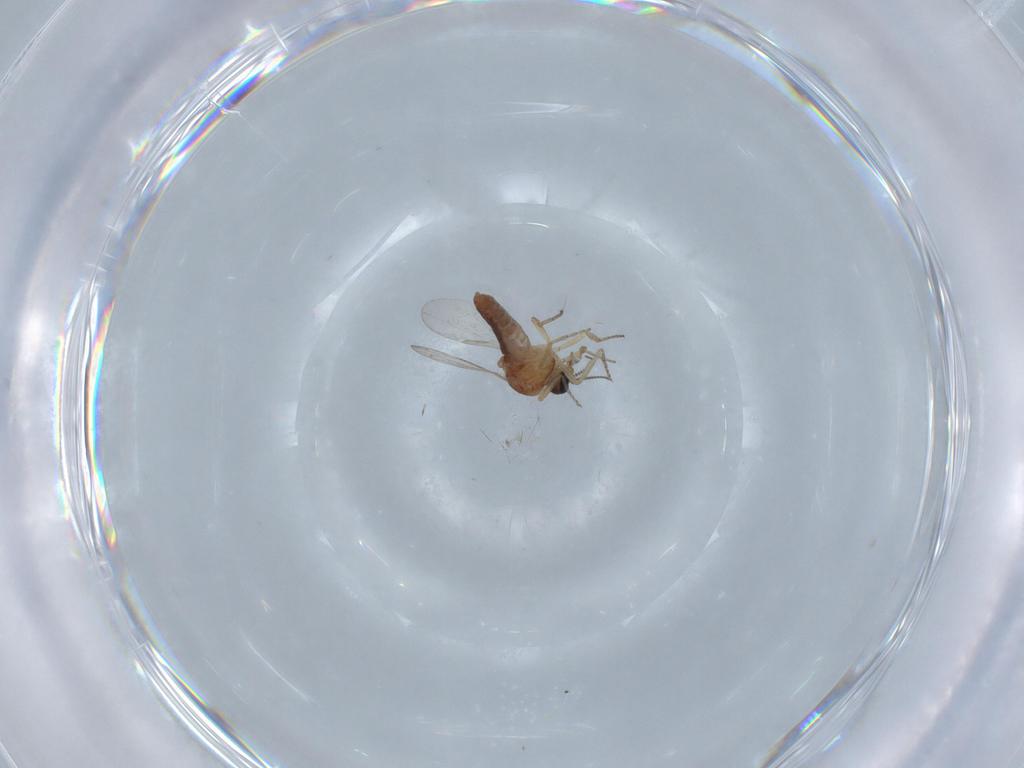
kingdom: Animalia
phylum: Arthropoda
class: Insecta
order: Diptera
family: Ceratopogonidae
